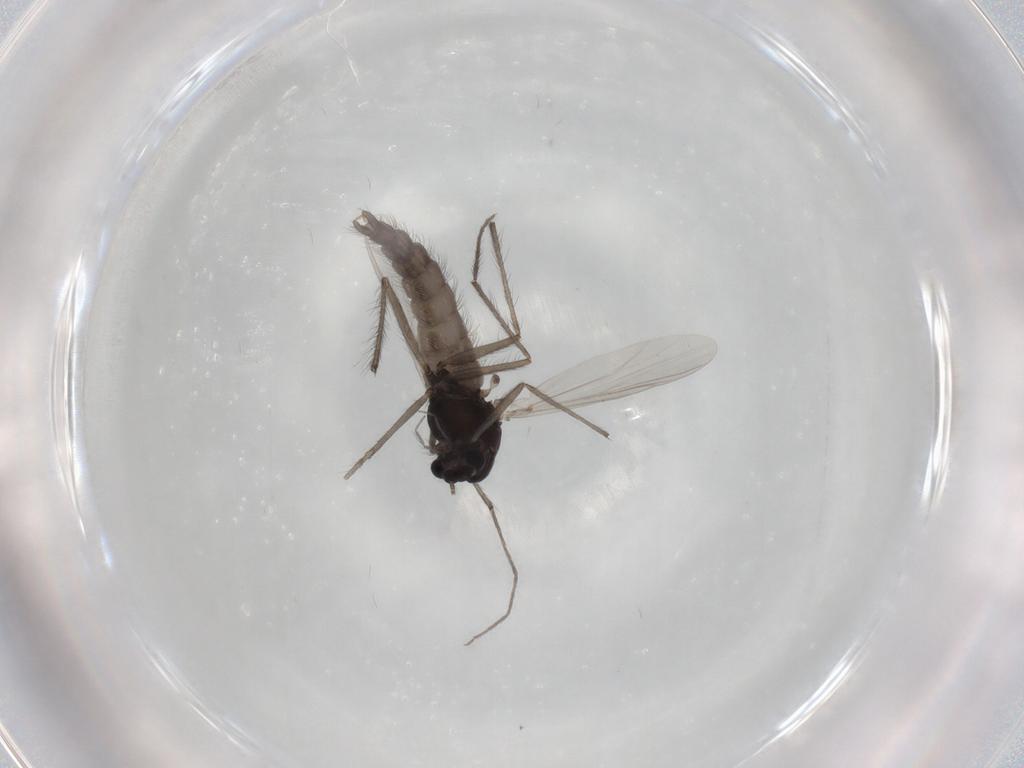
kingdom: Animalia
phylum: Arthropoda
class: Insecta
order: Diptera
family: Chironomidae
